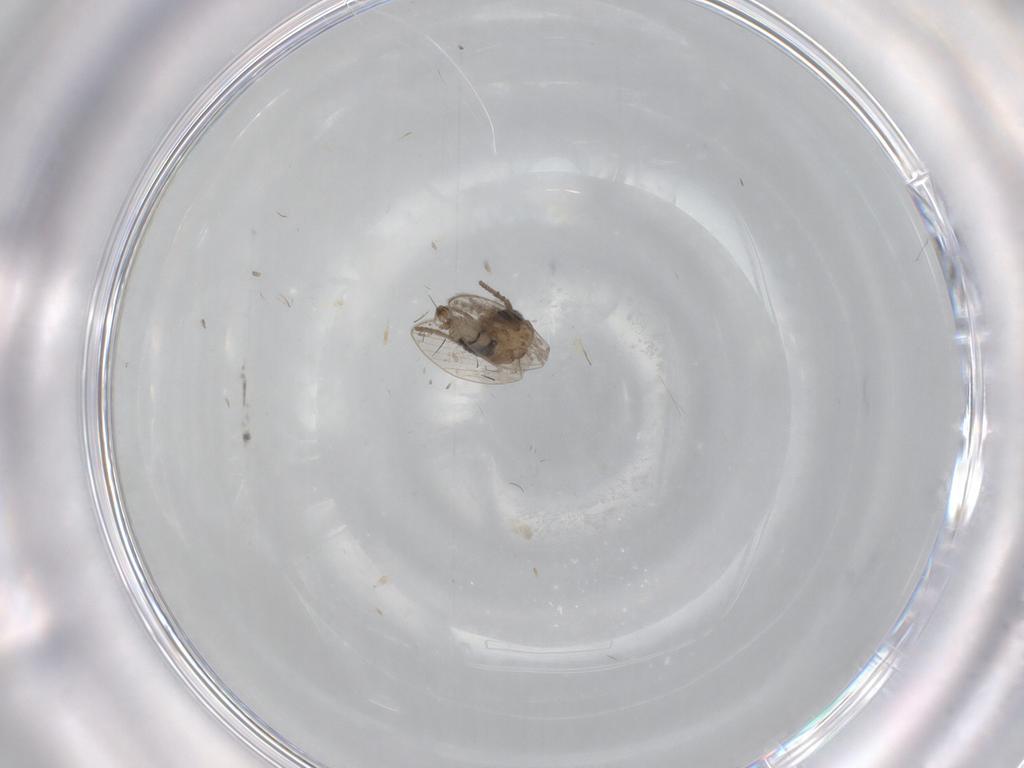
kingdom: Animalia
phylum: Arthropoda
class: Insecta
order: Diptera
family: Psychodidae
